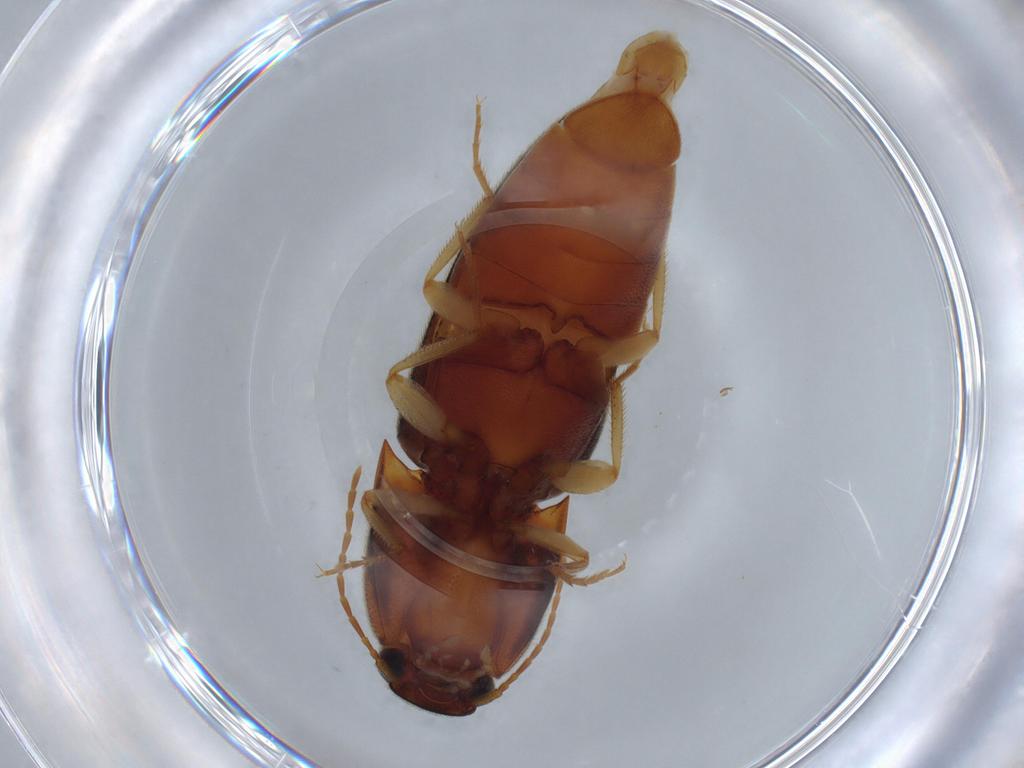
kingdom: Animalia
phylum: Arthropoda
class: Insecta
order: Coleoptera
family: Elateridae
